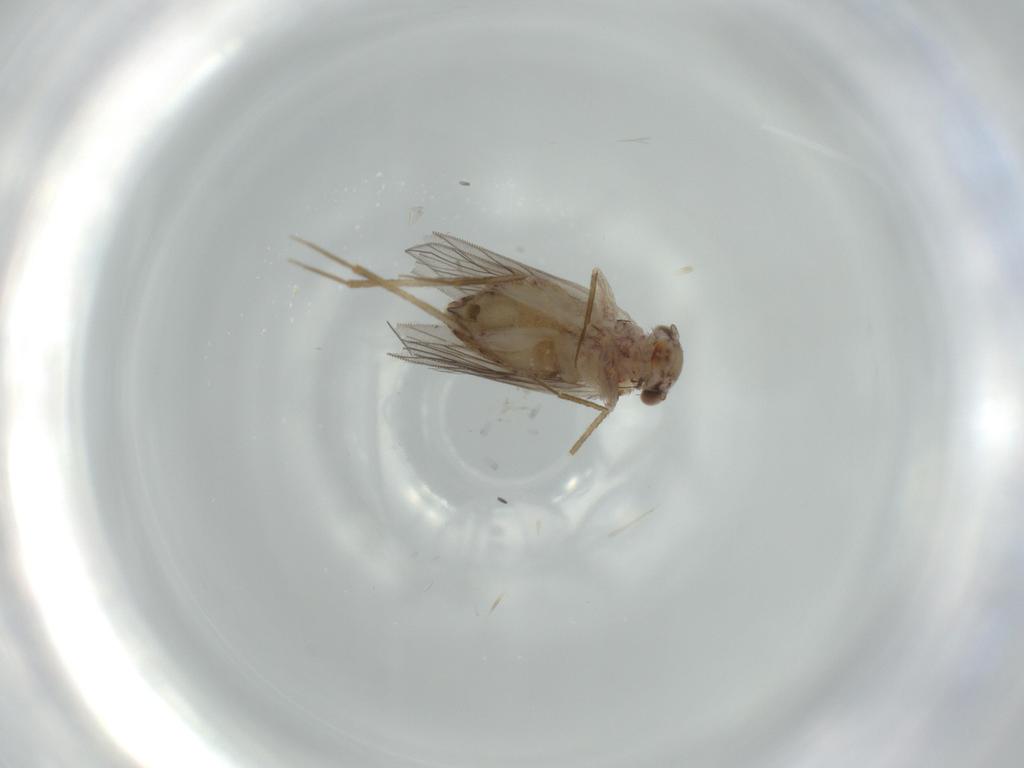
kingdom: Animalia
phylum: Arthropoda
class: Insecta
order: Psocodea
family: Lepidopsocidae
